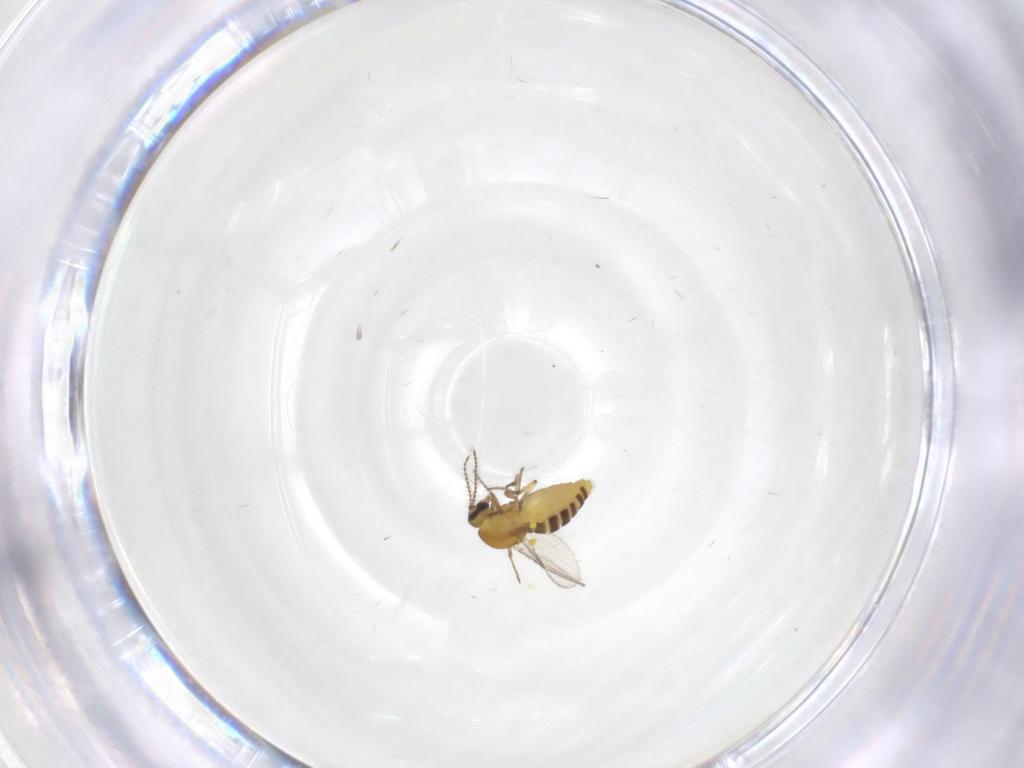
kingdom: Animalia
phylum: Arthropoda
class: Insecta
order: Diptera
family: Ceratopogonidae
